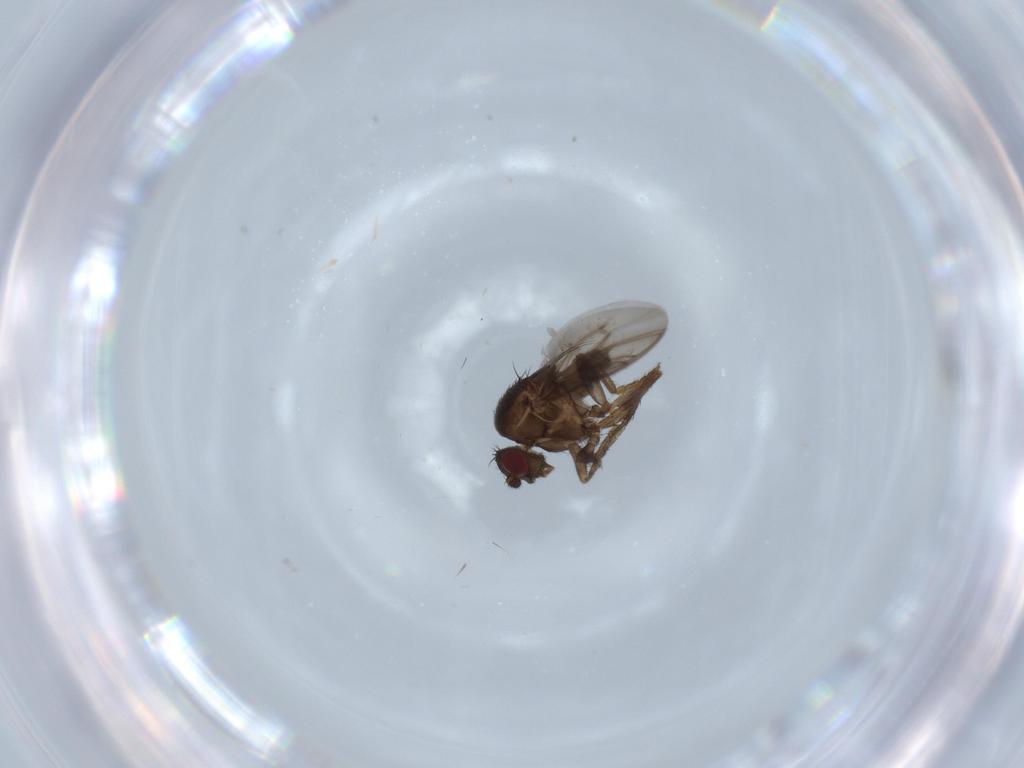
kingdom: Animalia
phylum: Arthropoda
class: Insecta
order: Diptera
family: Sphaeroceridae
